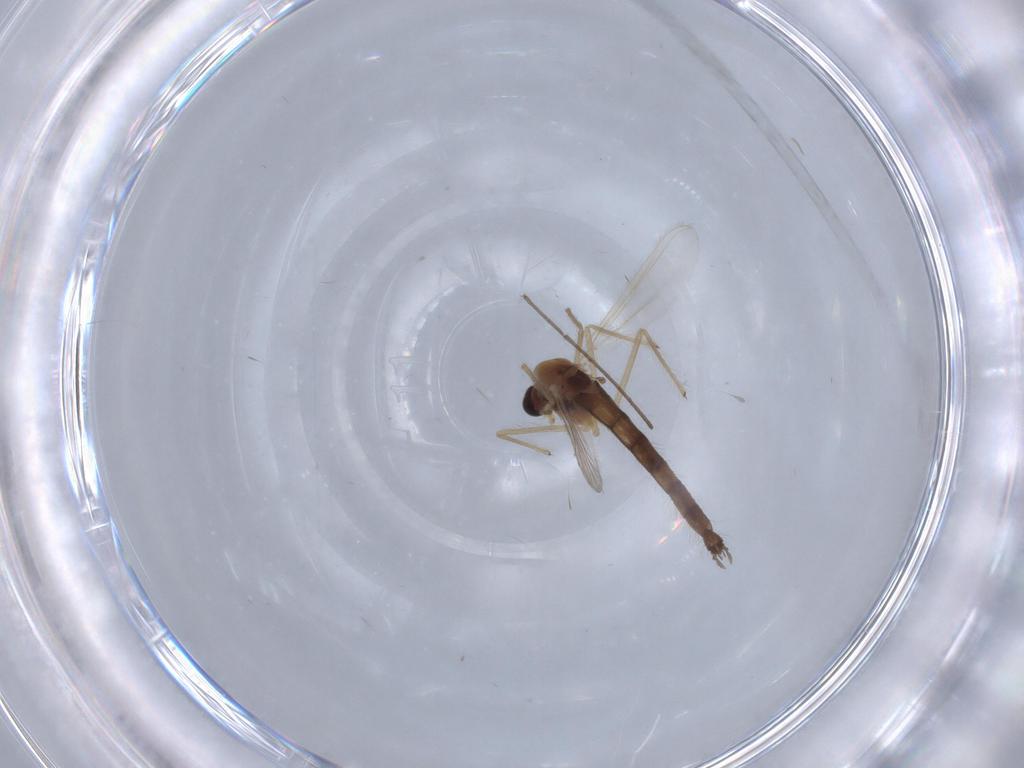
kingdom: Animalia
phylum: Arthropoda
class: Insecta
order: Diptera
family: Chironomidae
